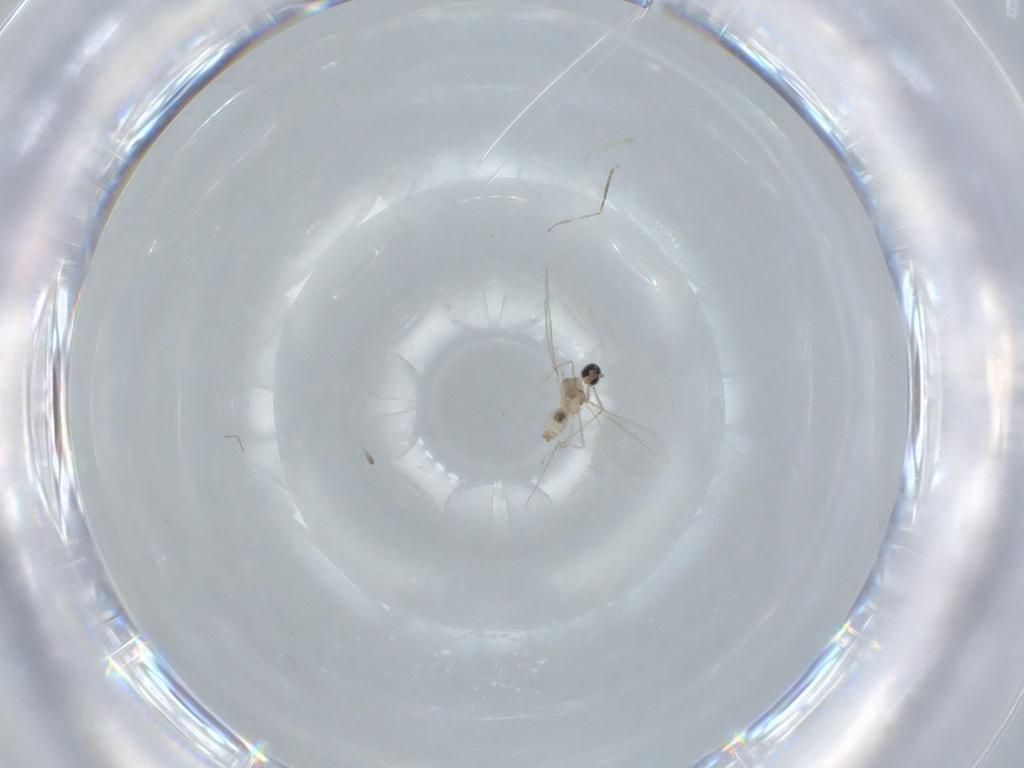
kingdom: Animalia
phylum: Arthropoda
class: Insecta
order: Diptera
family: Cecidomyiidae
